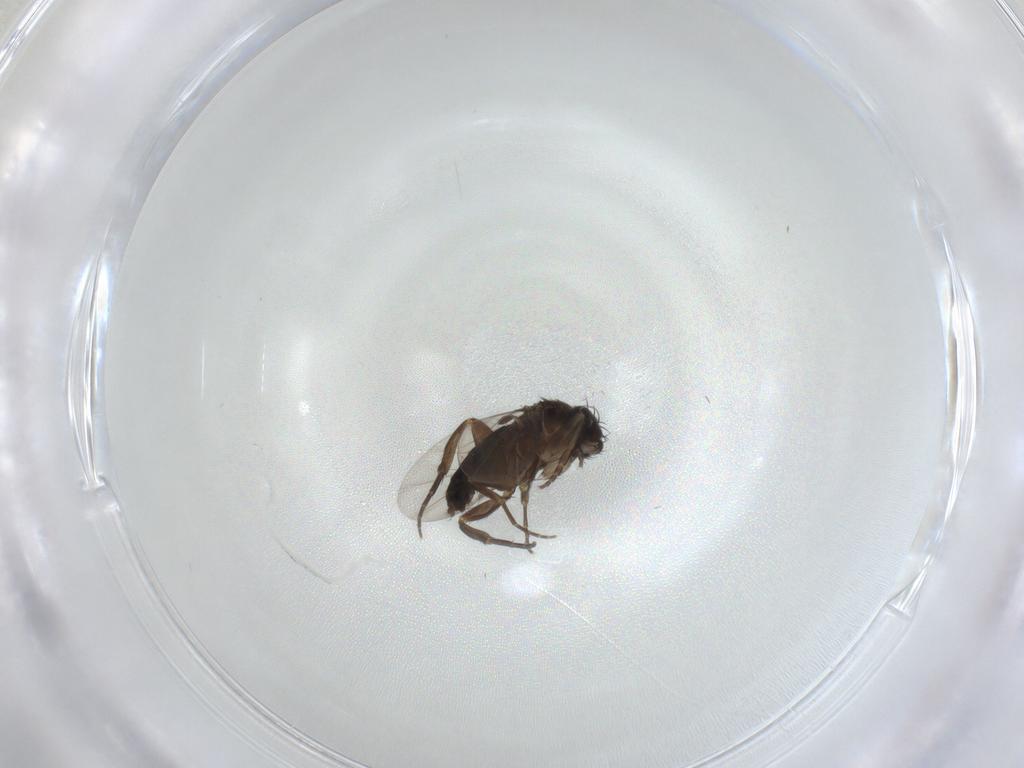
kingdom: Animalia
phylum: Arthropoda
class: Insecta
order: Diptera
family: Phoridae
